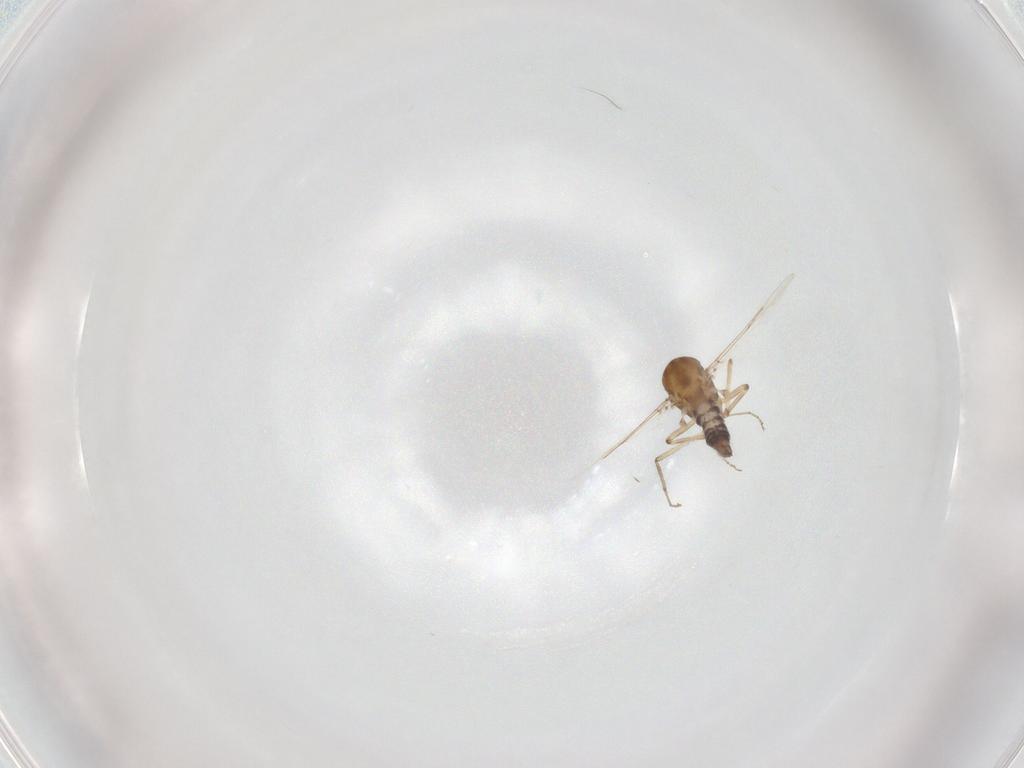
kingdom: Animalia
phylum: Arthropoda
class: Insecta
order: Diptera
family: Ceratopogonidae
